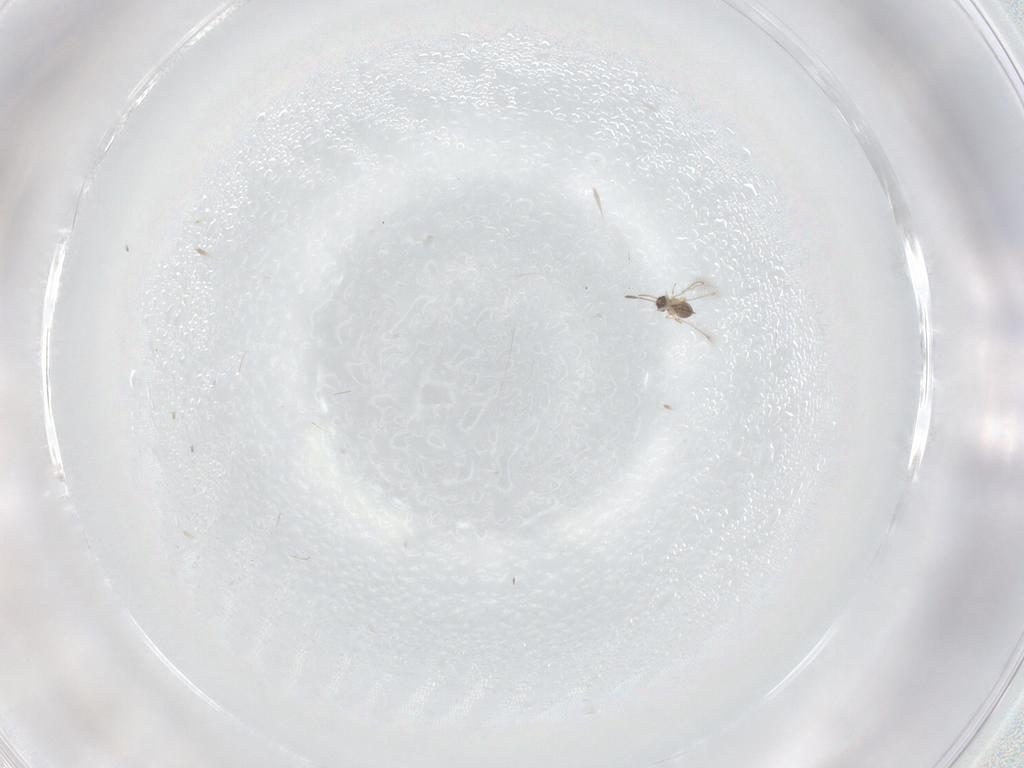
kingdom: Animalia
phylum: Arthropoda
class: Insecta
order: Hymenoptera
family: Mymaridae
